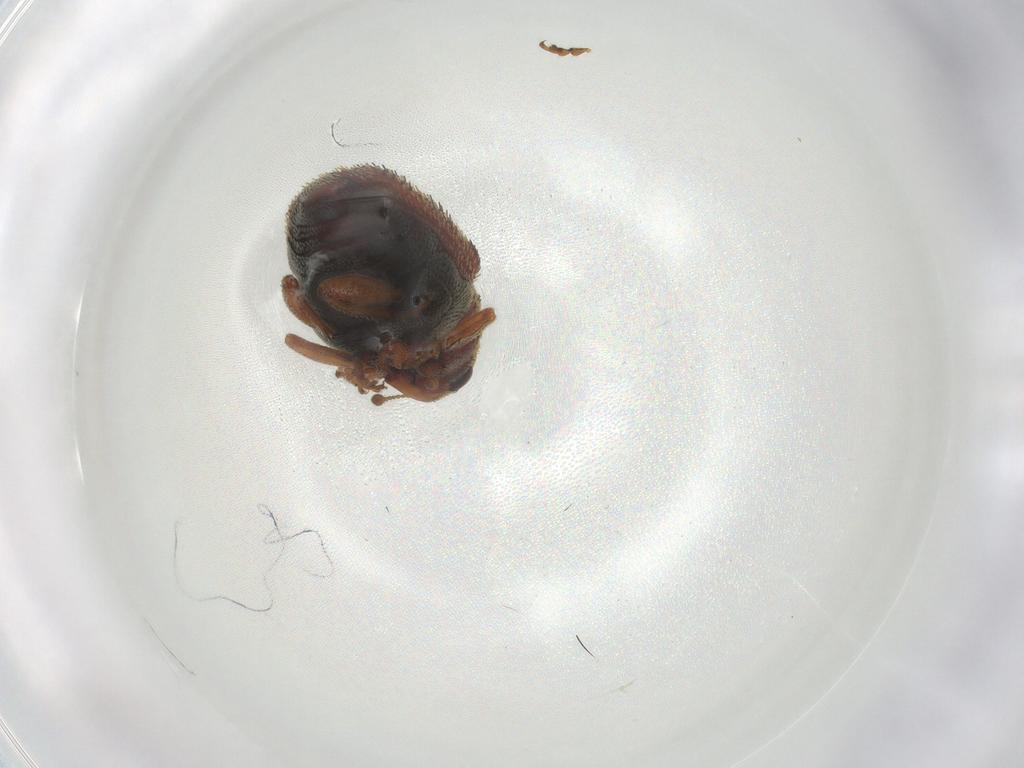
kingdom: Animalia
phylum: Arthropoda
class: Insecta
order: Coleoptera
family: Curculionidae
